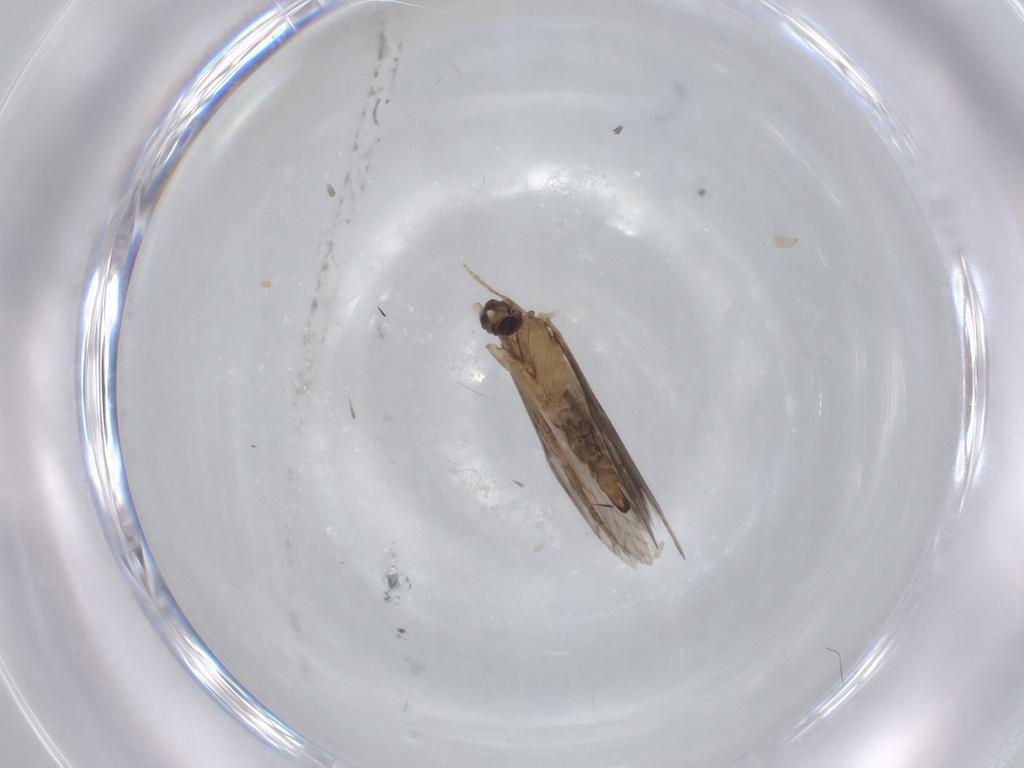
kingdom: Animalia
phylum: Arthropoda
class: Insecta
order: Trichoptera
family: Hydroptilidae
